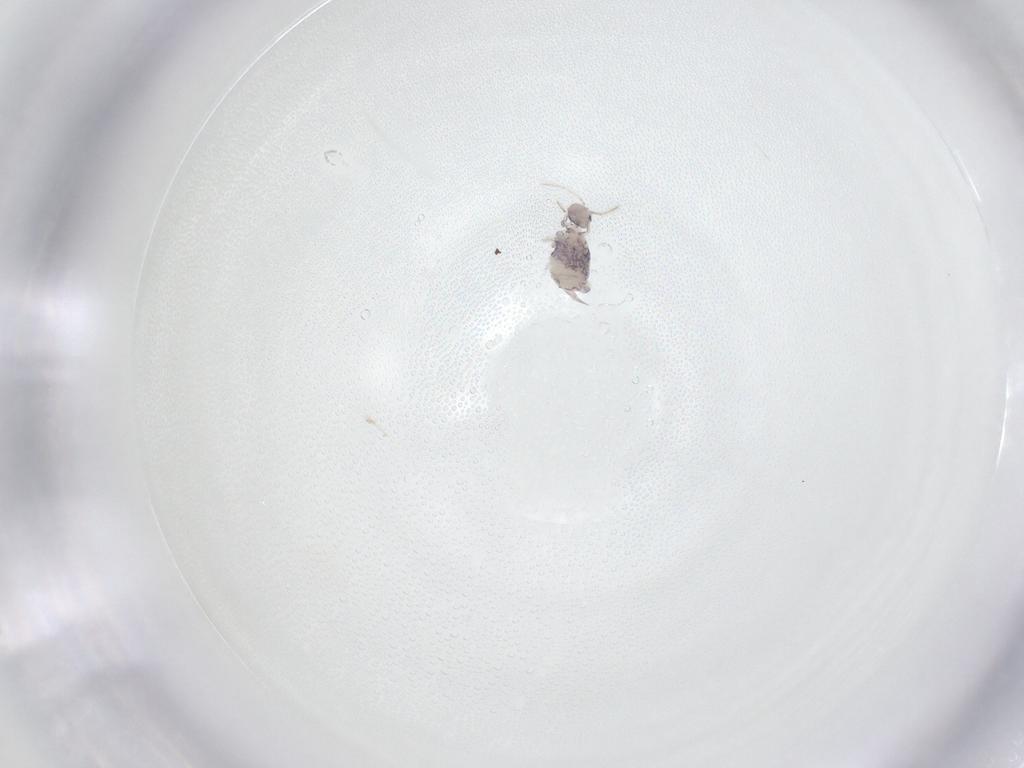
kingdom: Animalia
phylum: Arthropoda
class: Collembola
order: Symphypleona
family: Katiannidae
